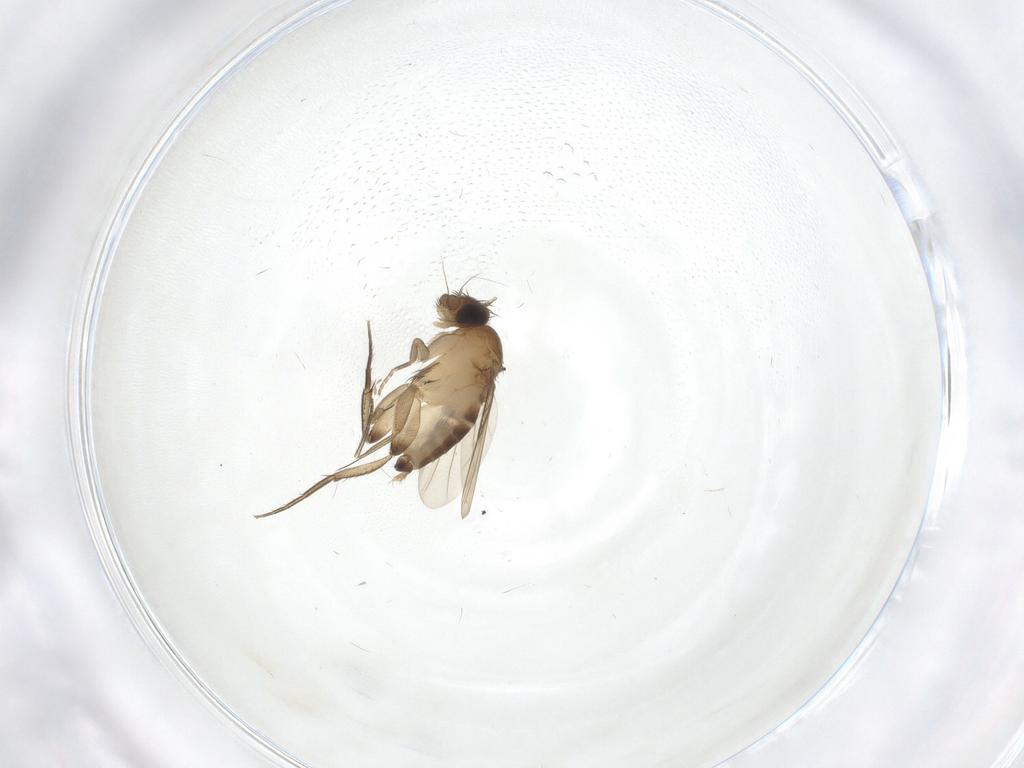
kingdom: Animalia
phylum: Arthropoda
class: Insecta
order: Diptera
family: Phoridae
